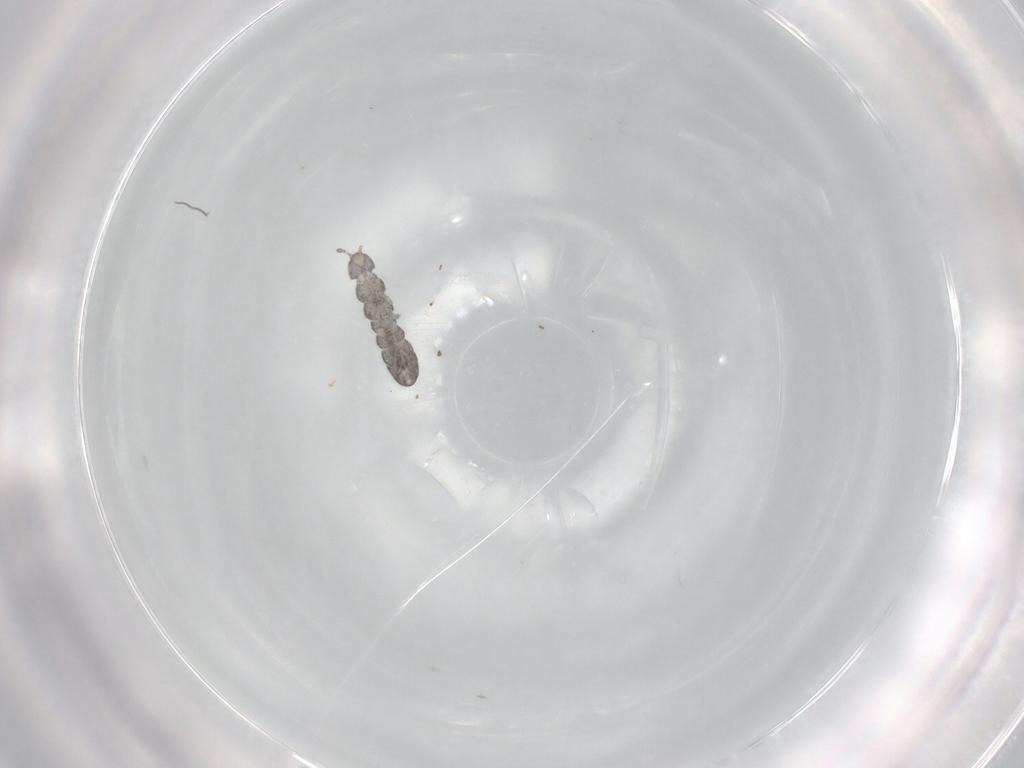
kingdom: Animalia
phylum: Arthropoda
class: Collembola
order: Entomobryomorpha
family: Isotomidae
